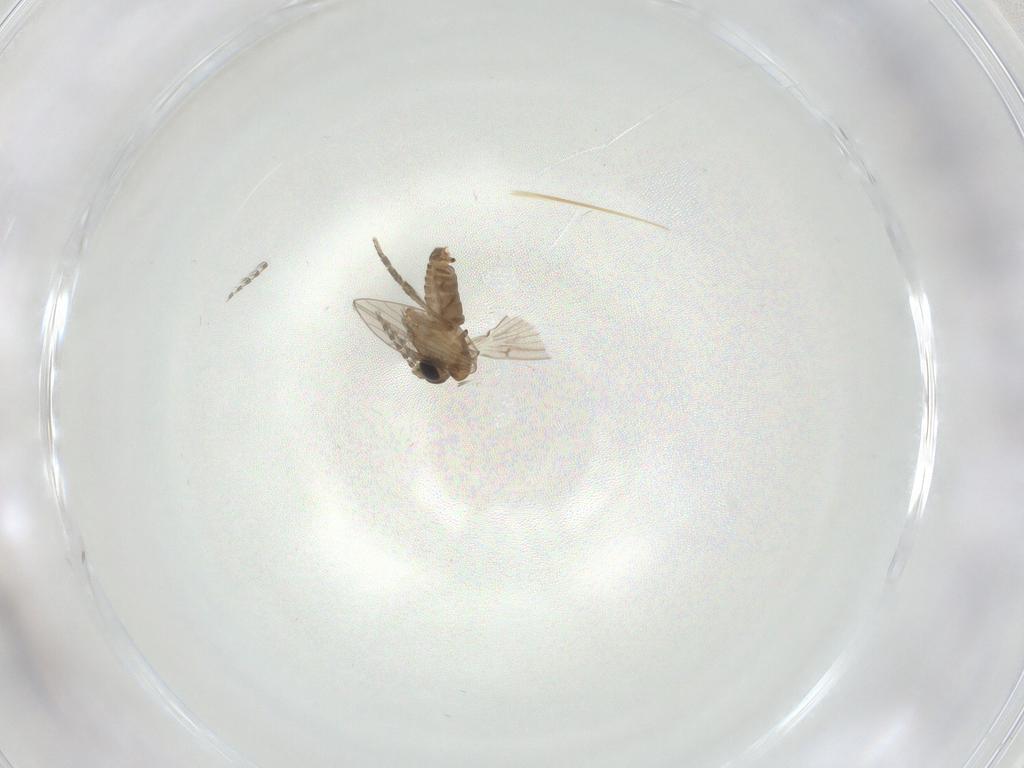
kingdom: Animalia
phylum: Arthropoda
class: Insecta
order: Diptera
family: Psychodidae
